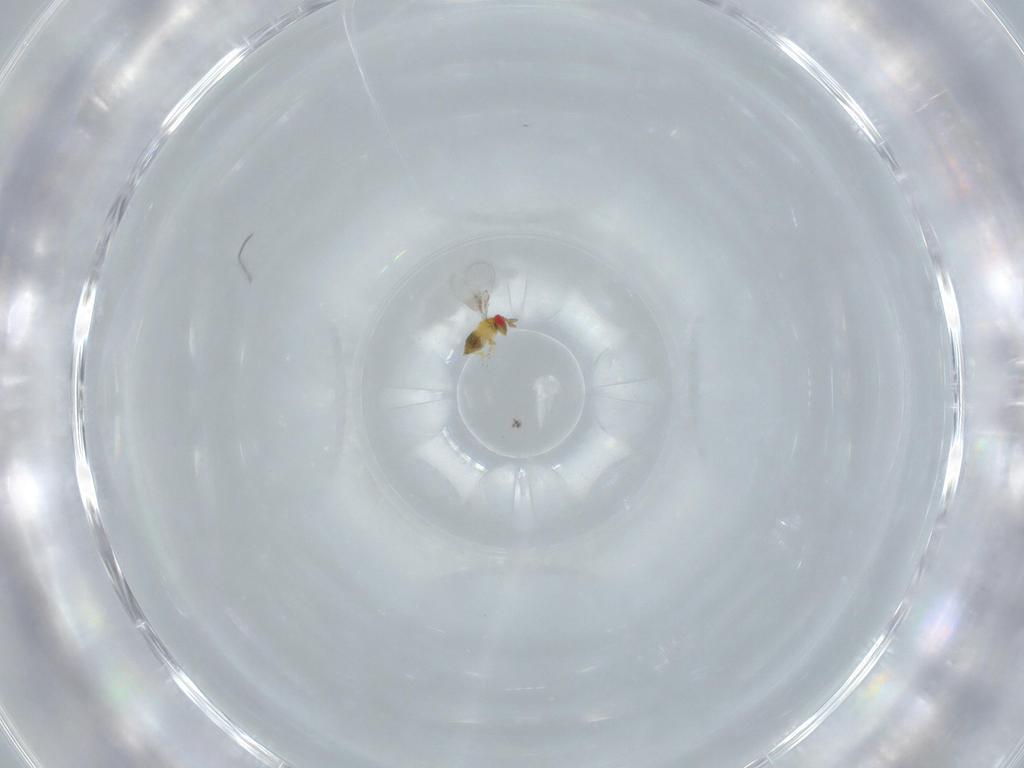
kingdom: Animalia
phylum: Arthropoda
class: Insecta
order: Hymenoptera
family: Trichogrammatidae
